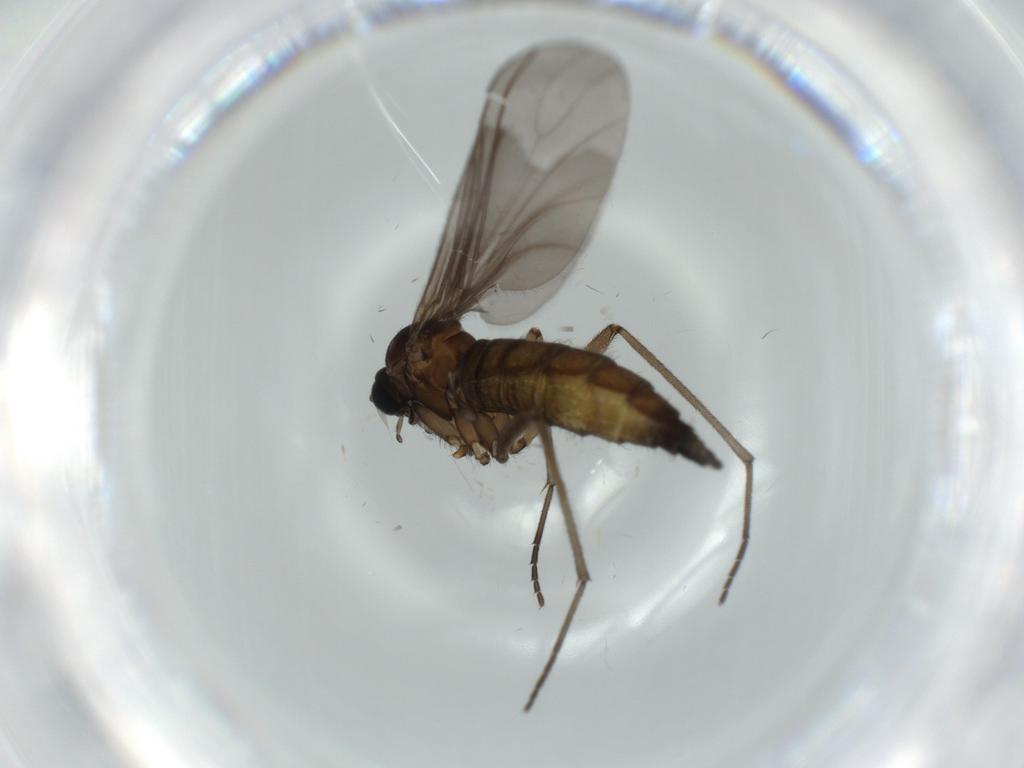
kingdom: Animalia
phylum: Arthropoda
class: Insecta
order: Diptera
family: Sciaridae
